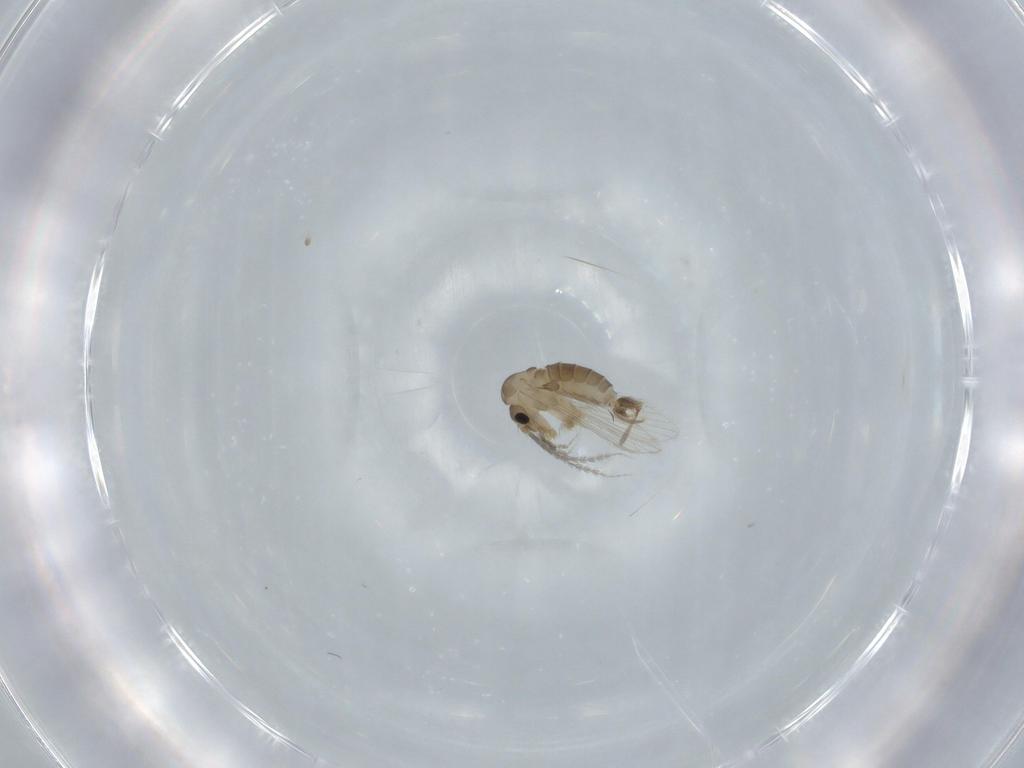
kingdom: Animalia
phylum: Arthropoda
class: Insecta
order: Diptera
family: Psychodidae
